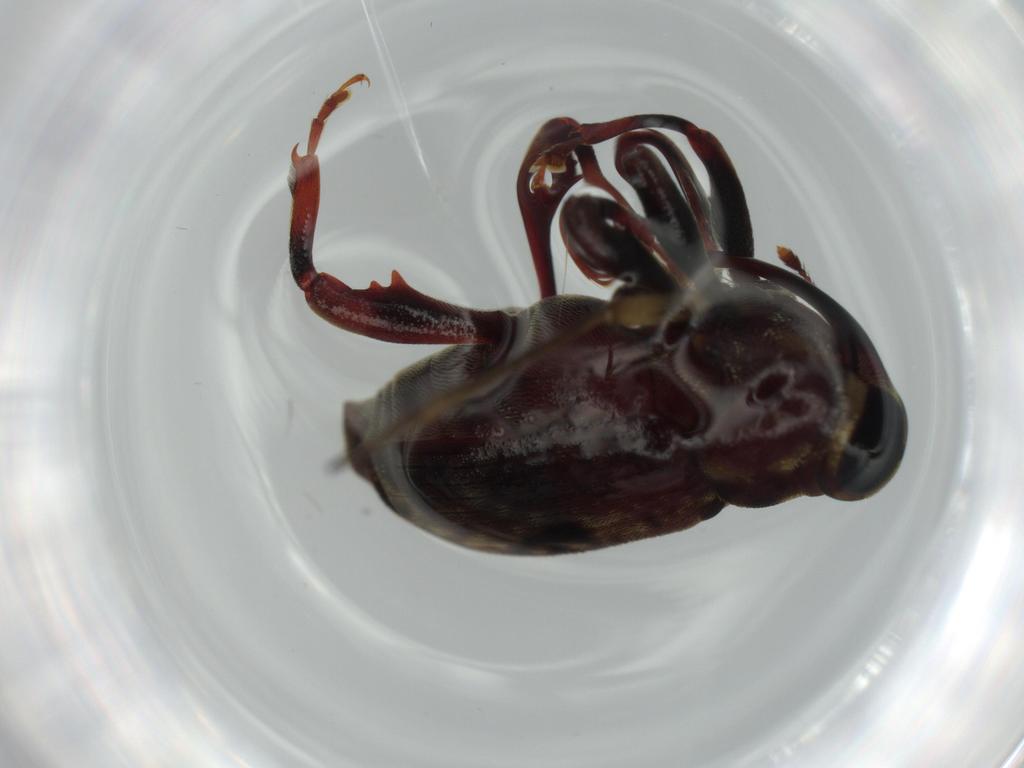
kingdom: Animalia
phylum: Arthropoda
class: Insecta
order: Coleoptera
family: Curculionidae
